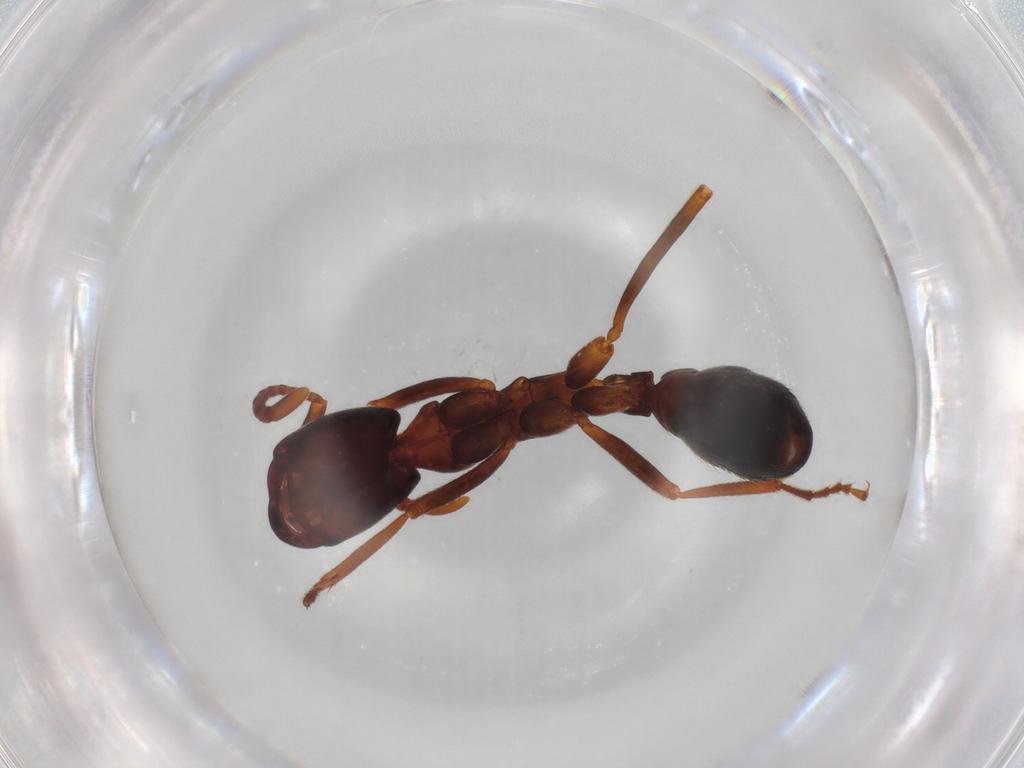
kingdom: Animalia
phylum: Arthropoda
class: Insecta
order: Hymenoptera
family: Formicidae
